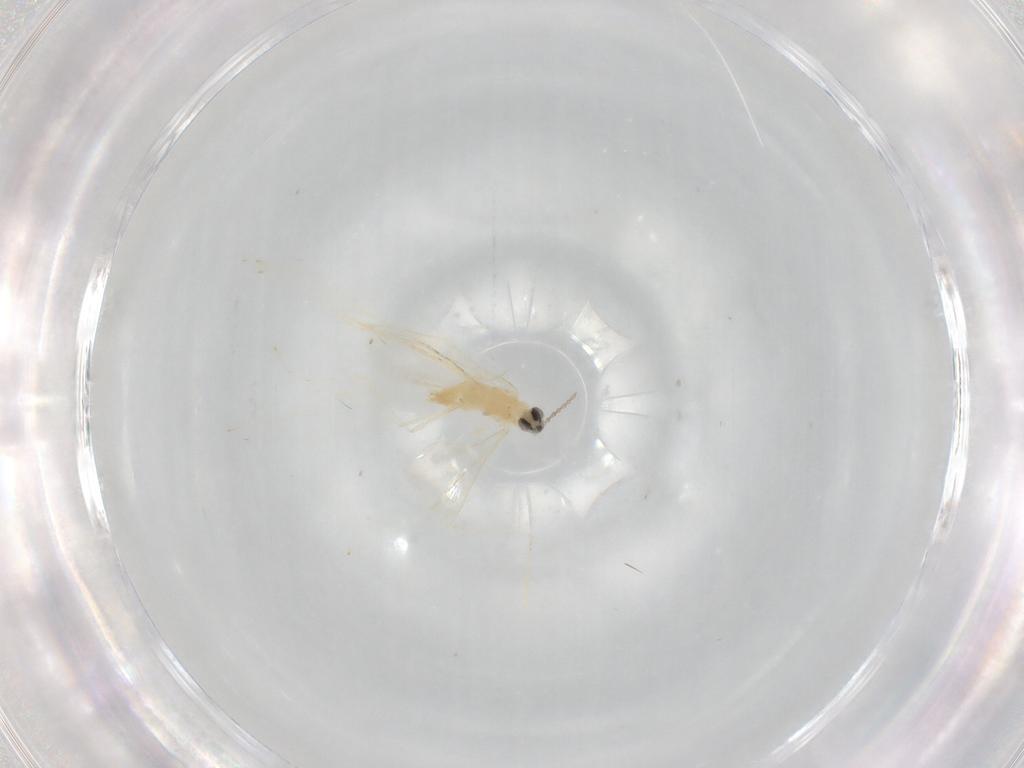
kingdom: Animalia
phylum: Arthropoda
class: Insecta
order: Diptera
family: Cecidomyiidae
